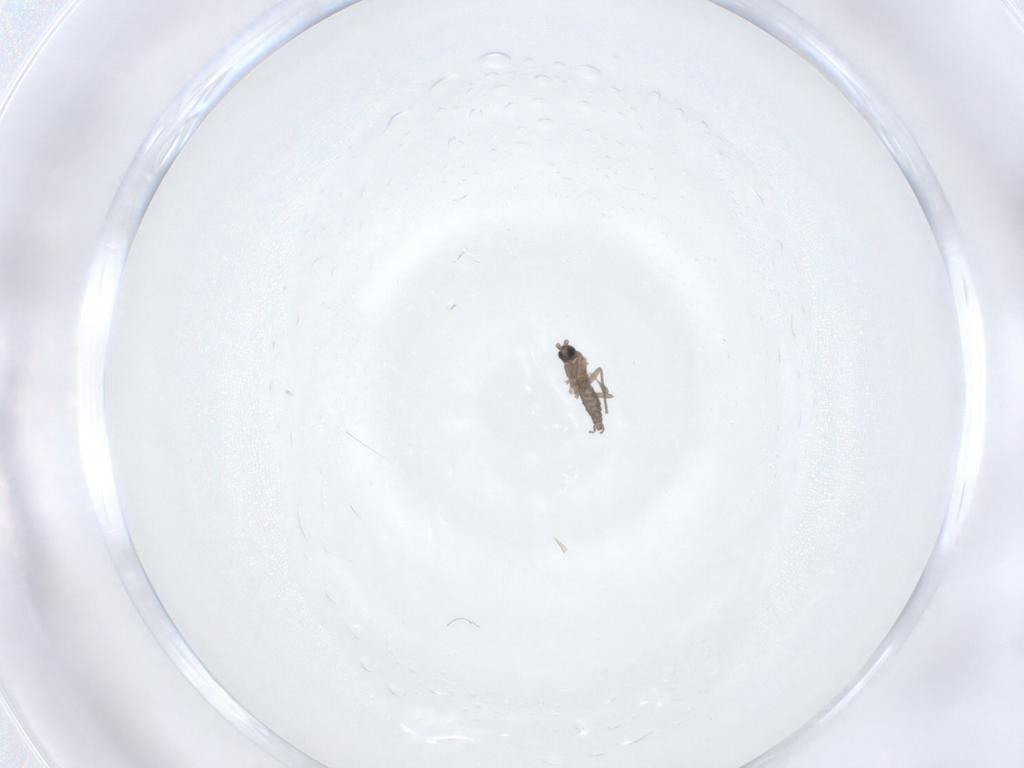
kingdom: Animalia
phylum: Arthropoda
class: Insecta
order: Diptera
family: Sciaridae
